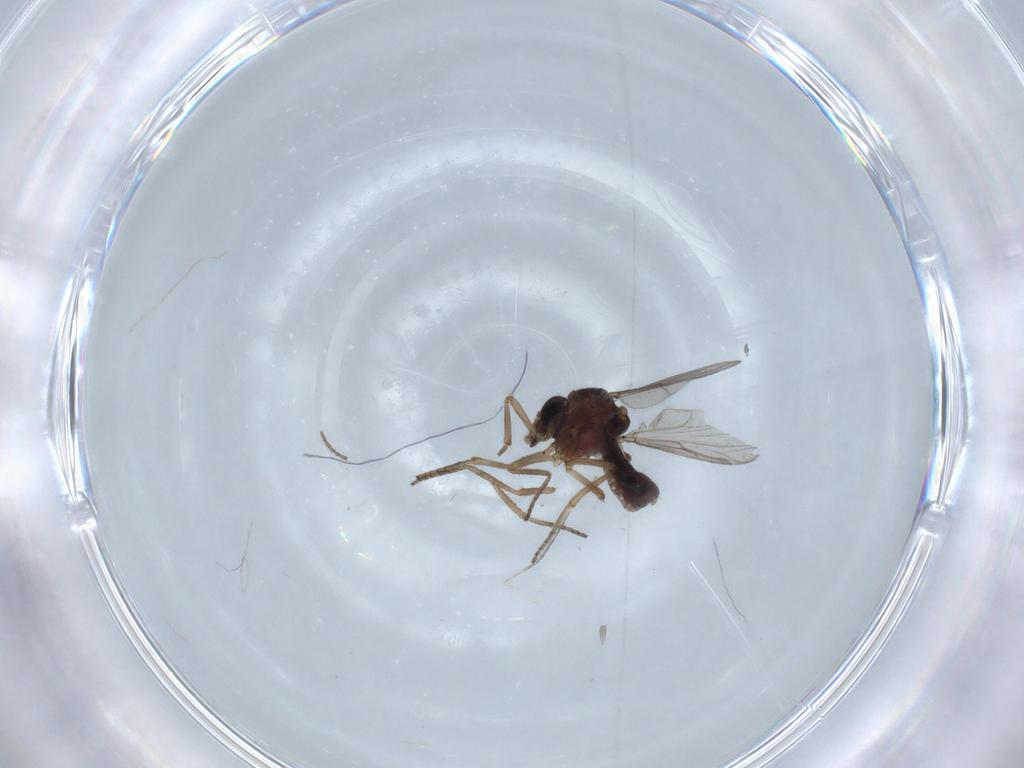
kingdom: Animalia
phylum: Arthropoda
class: Insecta
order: Diptera
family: Ceratopogonidae
